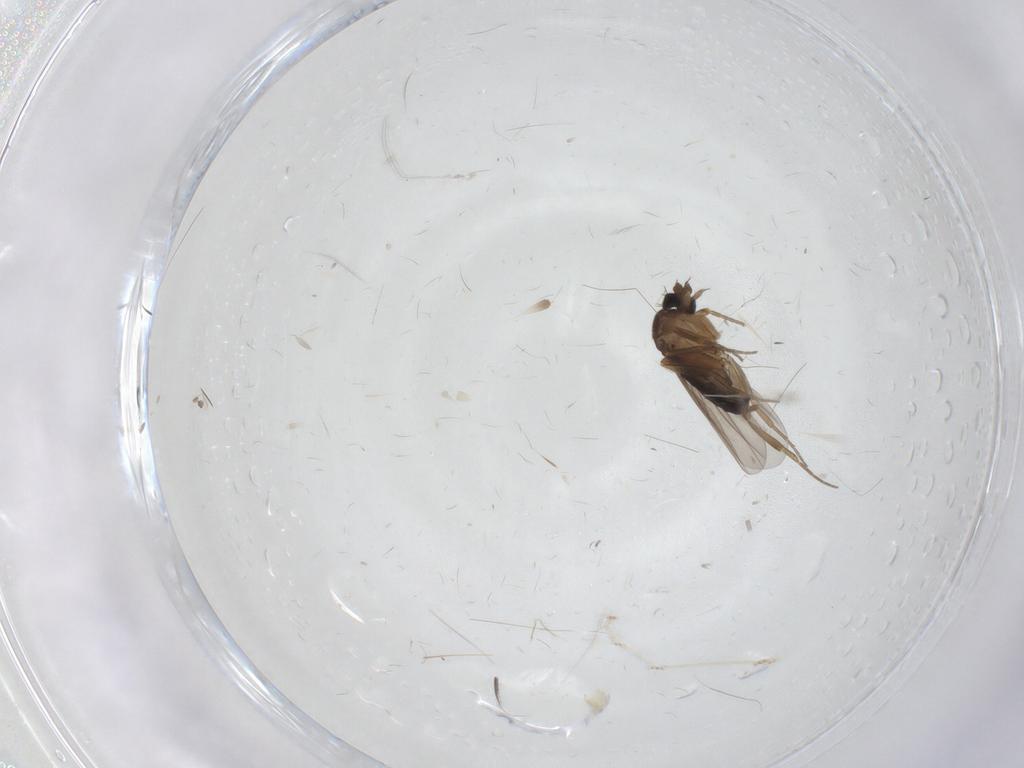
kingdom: Animalia
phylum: Arthropoda
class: Insecta
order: Diptera
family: Cecidomyiidae
